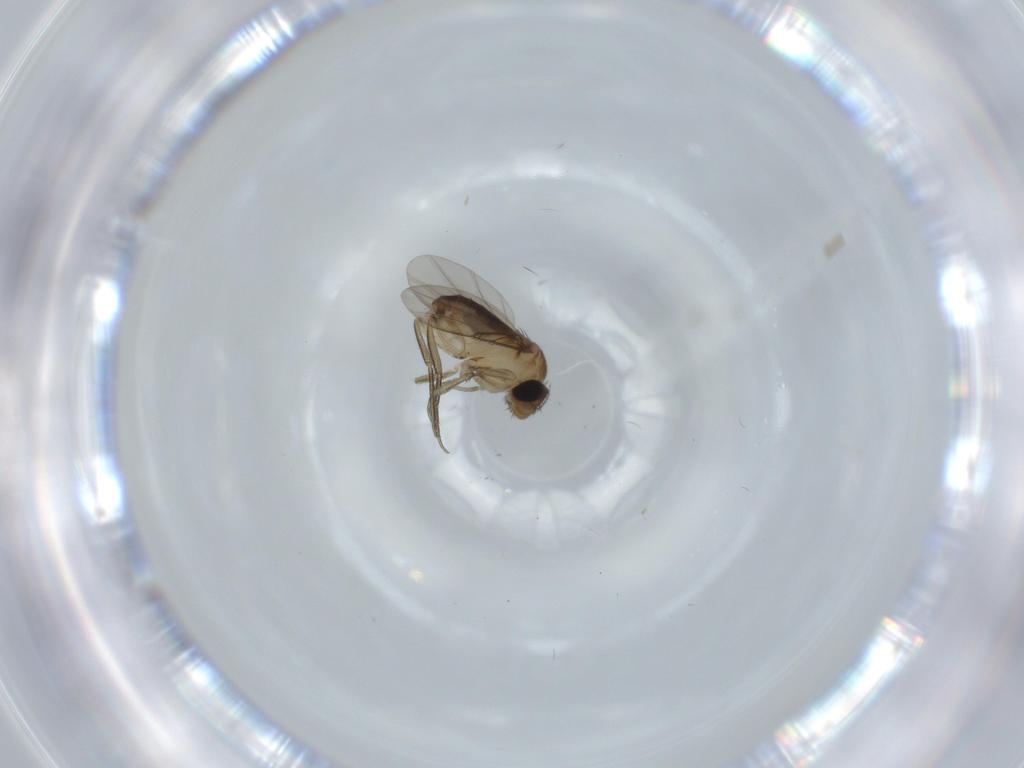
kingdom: Animalia
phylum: Arthropoda
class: Insecta
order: Diptera
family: Phoridae
